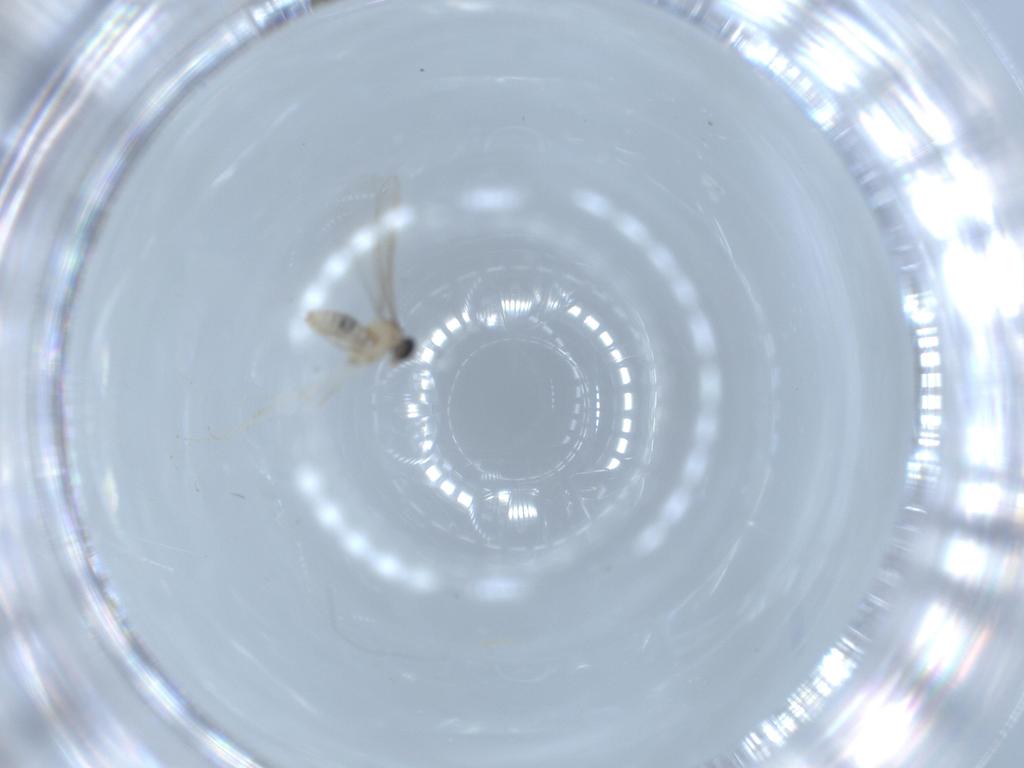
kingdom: Animalia
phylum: Arthropoda
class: Insecta
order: Diptera
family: Cecidomyiidae
